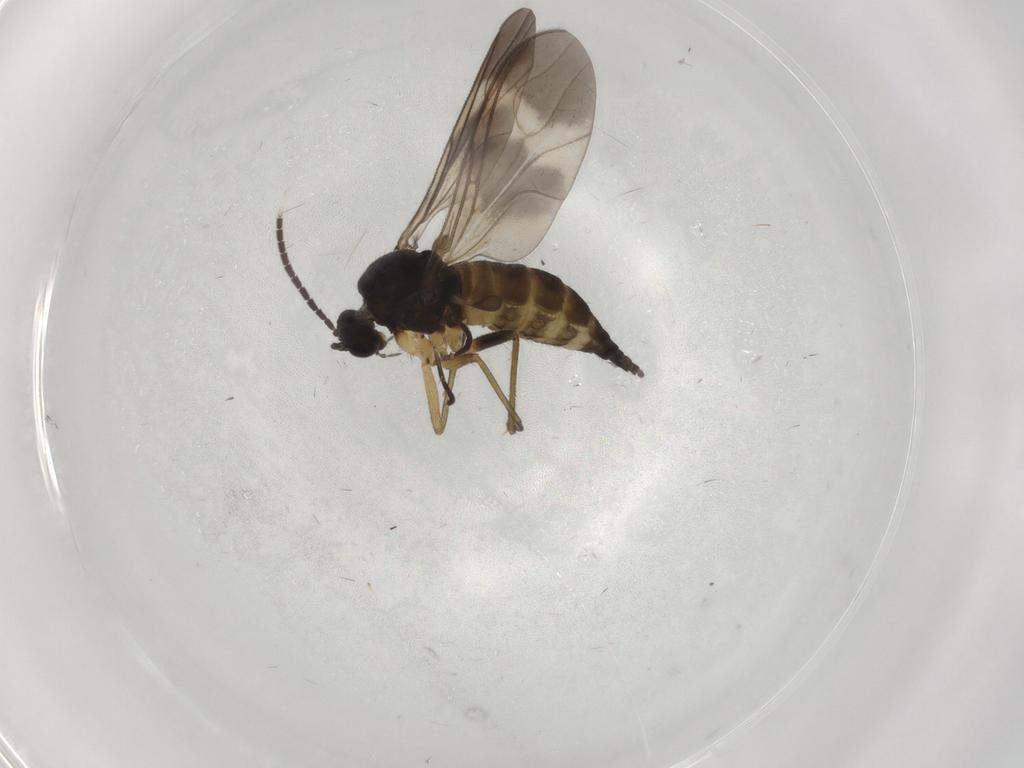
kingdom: Animalia
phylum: Arthropoda
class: Insecta
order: Diptera
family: Sciaridae
